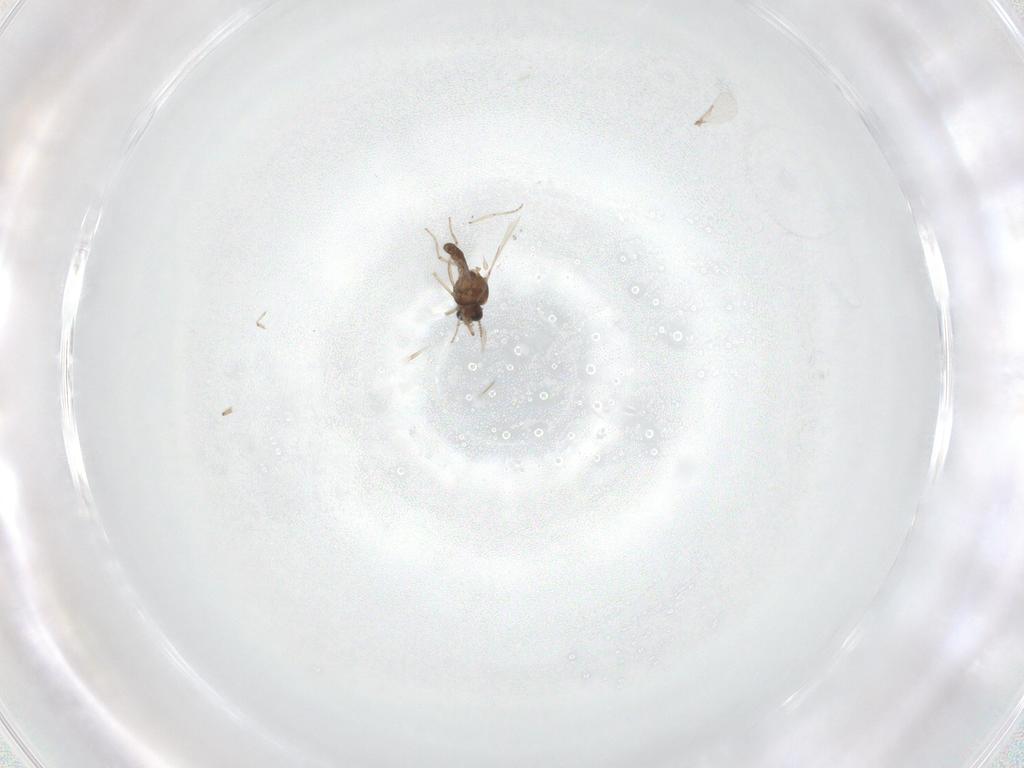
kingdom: Animalia
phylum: Arthropoda
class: Insecta
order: Diptera
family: Ceratopogonidae
